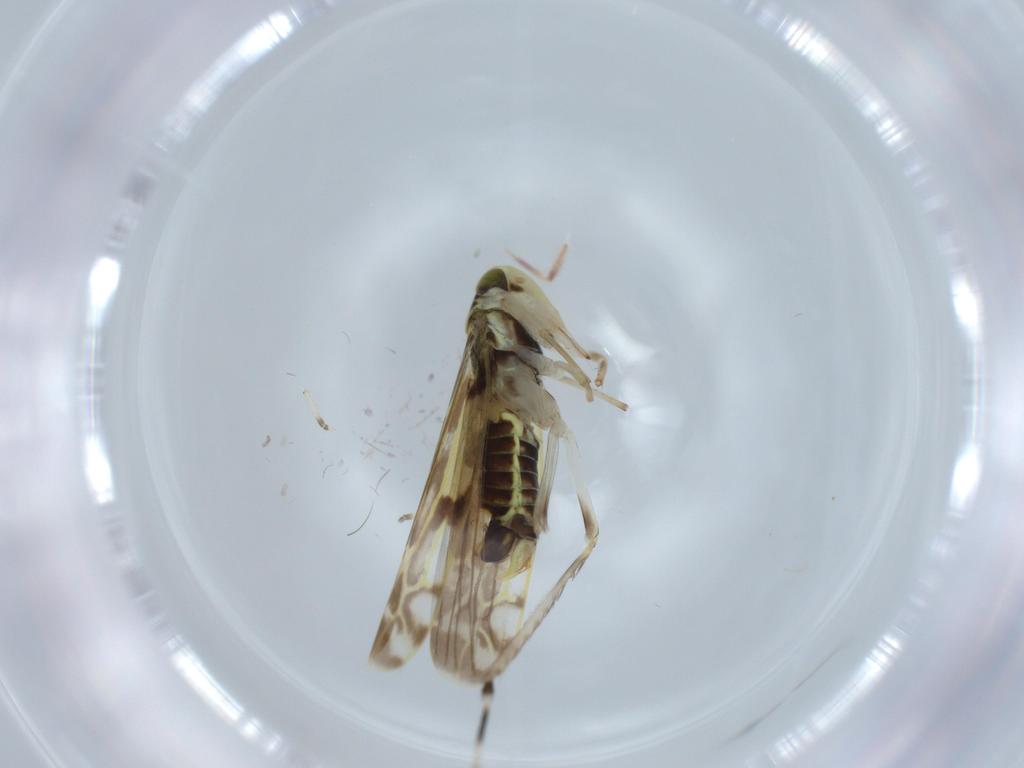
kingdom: Animalia
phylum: Arthropoda
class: Insecta
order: Hemiptera
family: Cicadellidae
